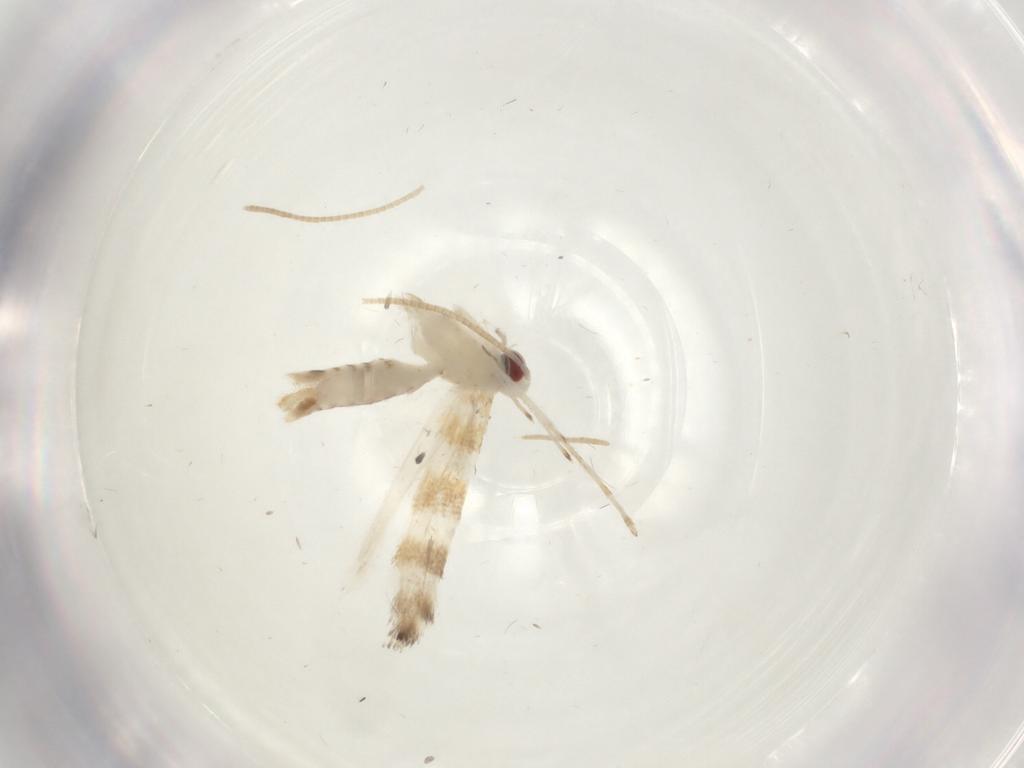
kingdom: Animalia
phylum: Arthropoda
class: Insecta
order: Lepidoptera
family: Gracillariidae
